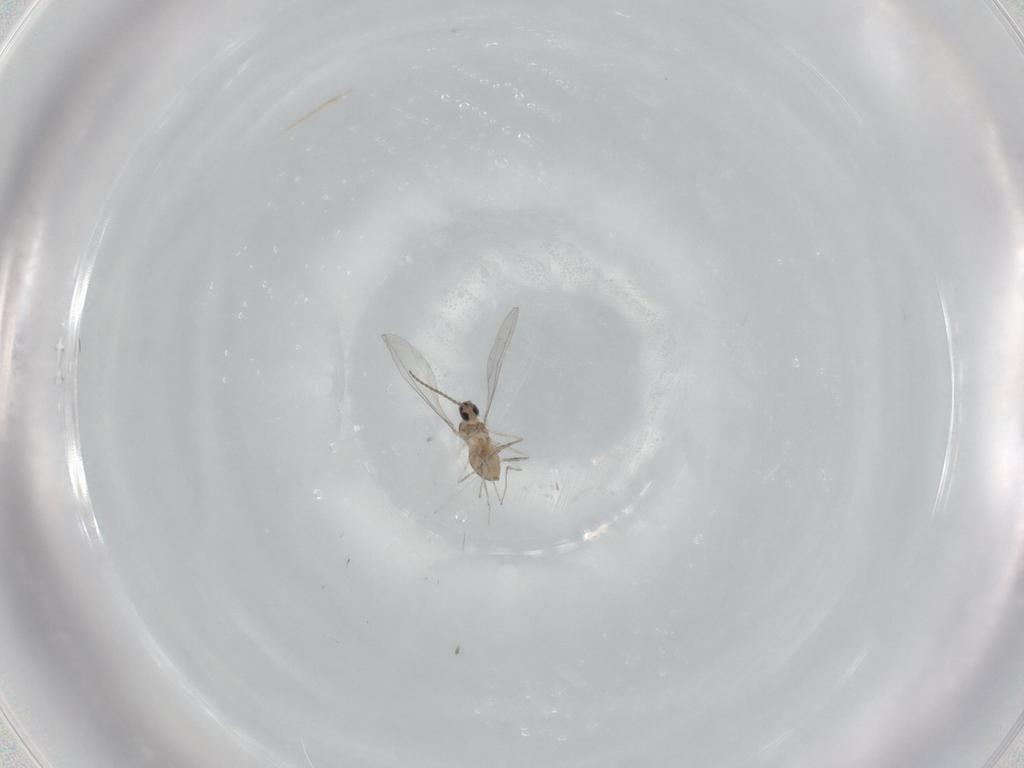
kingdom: Animalia
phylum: Arthropoda
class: Insecta
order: Diptera
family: Cecidomyiidae
